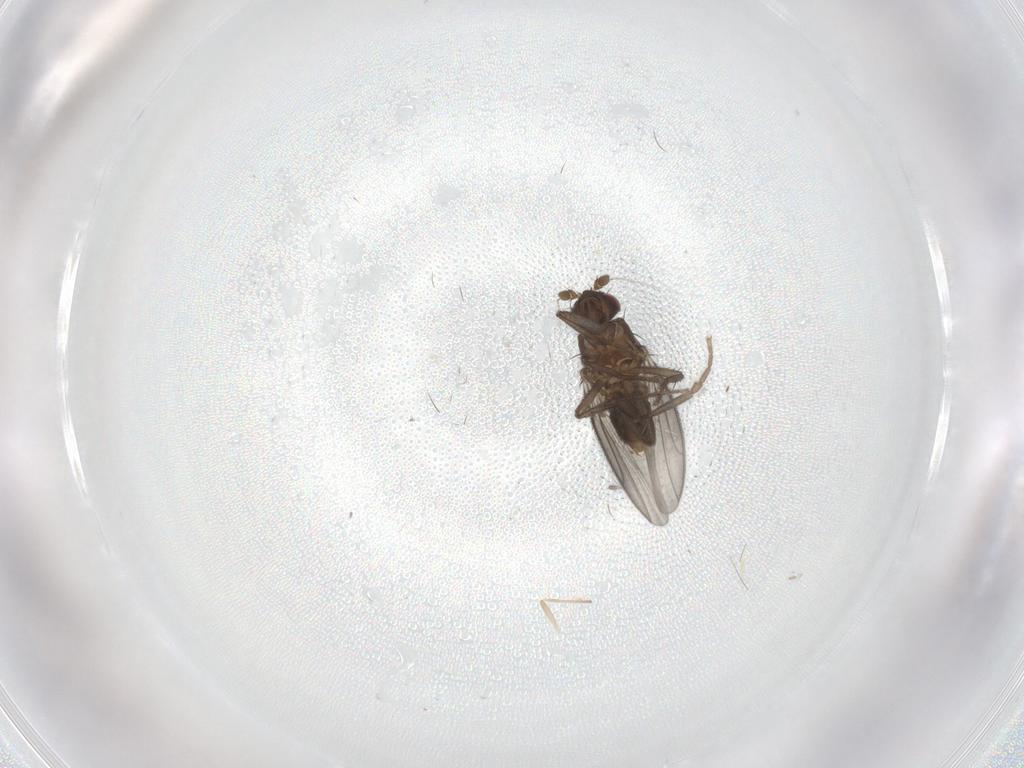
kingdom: Animalia
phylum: Arthropoda
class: Insecta
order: Diptera
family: Sphaeroceridae
